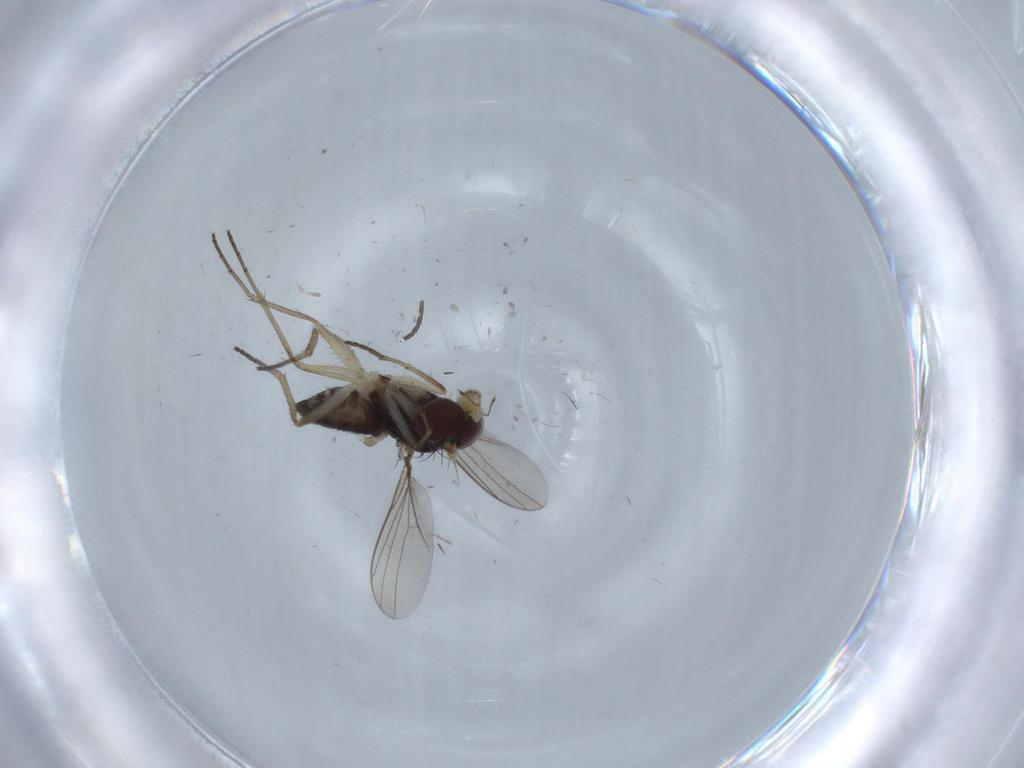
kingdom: Animalia
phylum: Arthropoda
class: Insecta
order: Diptera
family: Dolichopodidae
